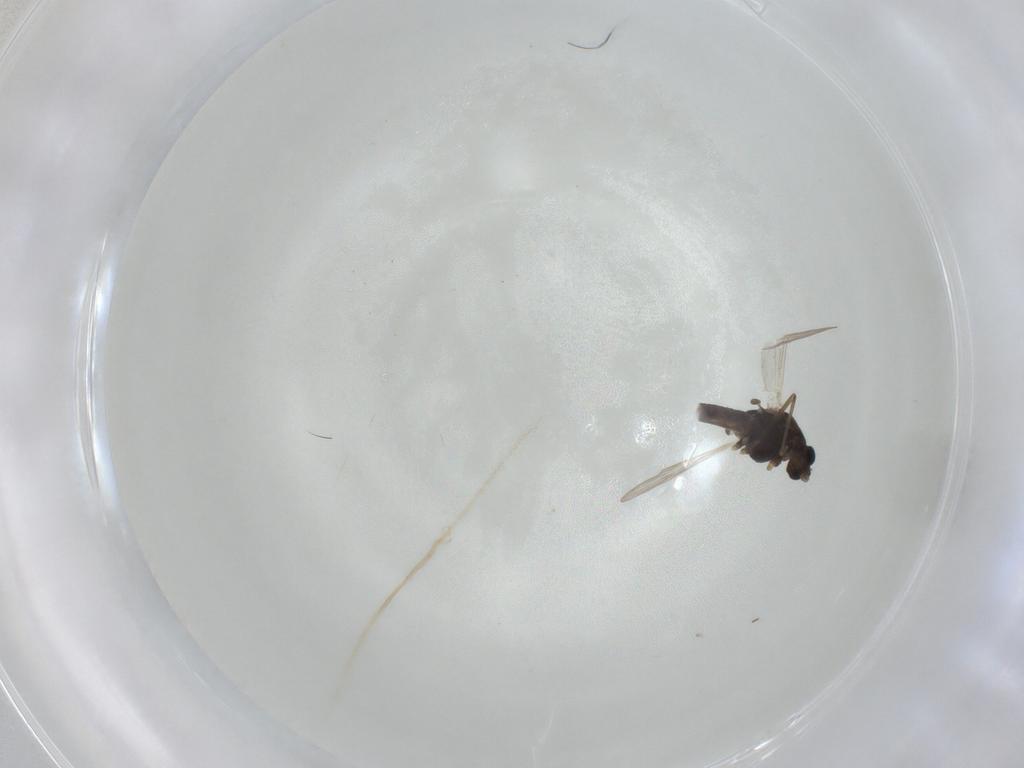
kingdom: Animalia
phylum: Arthropoda
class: Insecta
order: Diptera
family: Chironomidae
